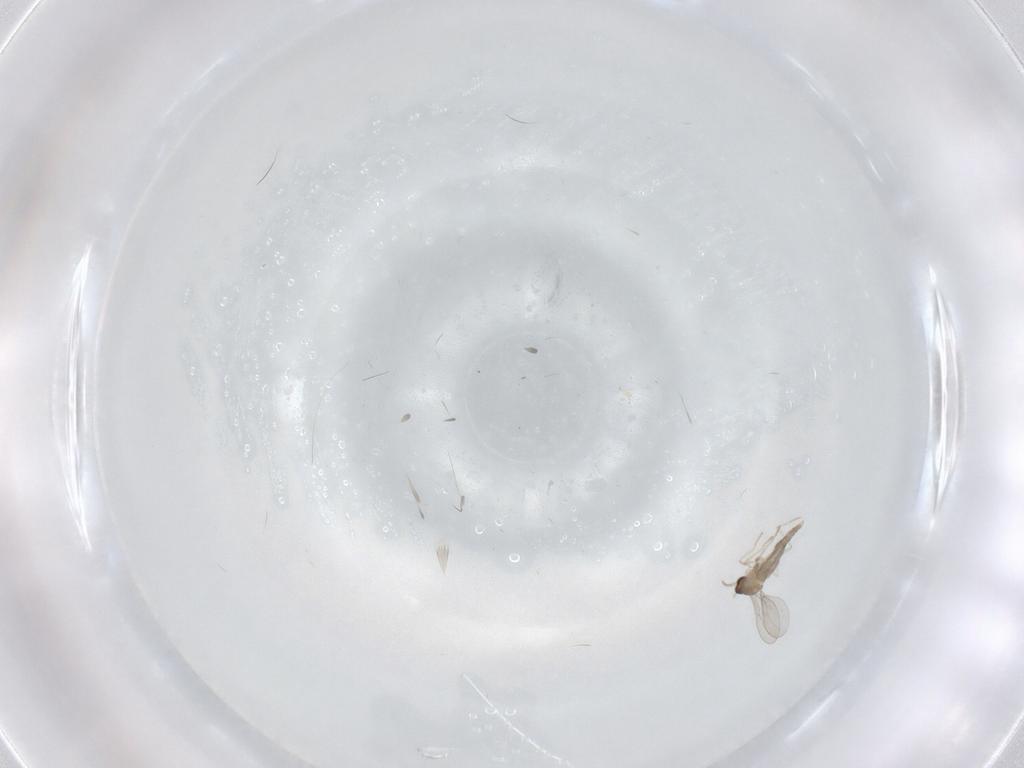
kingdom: Animalia
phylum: Arthropoda
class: Insecta
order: Diptera
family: Cecidomyiidae
